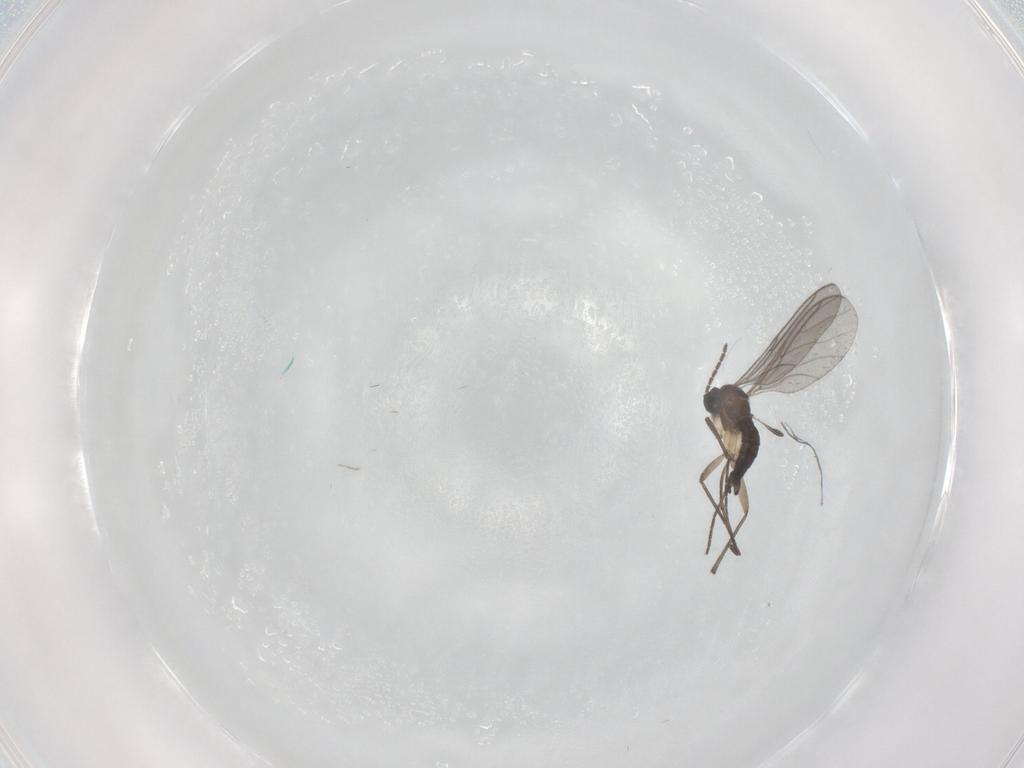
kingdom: Animalia
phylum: Arthropoda
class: Insecta
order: Diptera
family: Sciaridae
